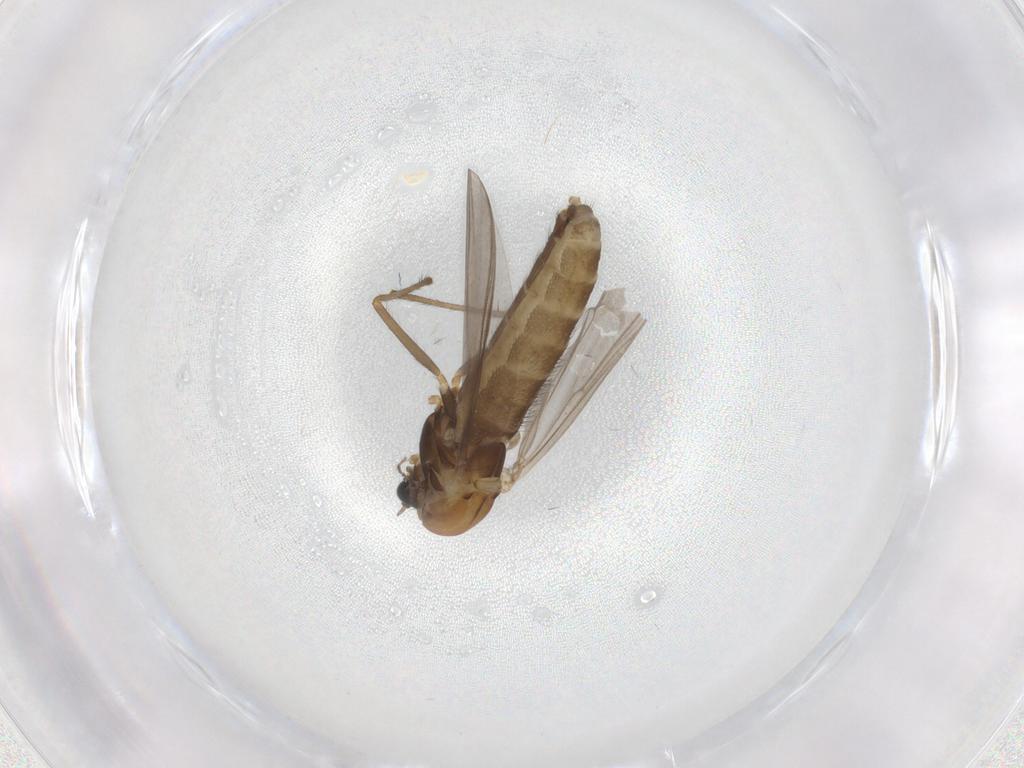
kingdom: Animalia
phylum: Arthropoda
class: Insecta
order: Diptera
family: Chironomidae
